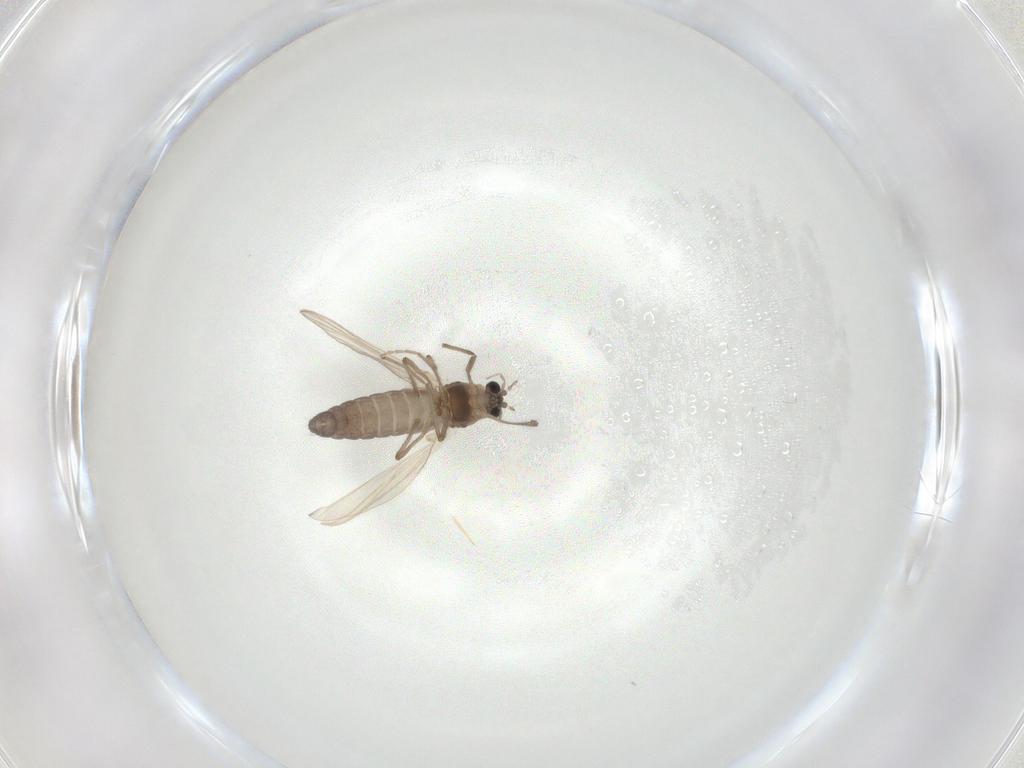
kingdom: Animalia
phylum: Arthropoda
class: Insecta
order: Diptera
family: Chironomidae
